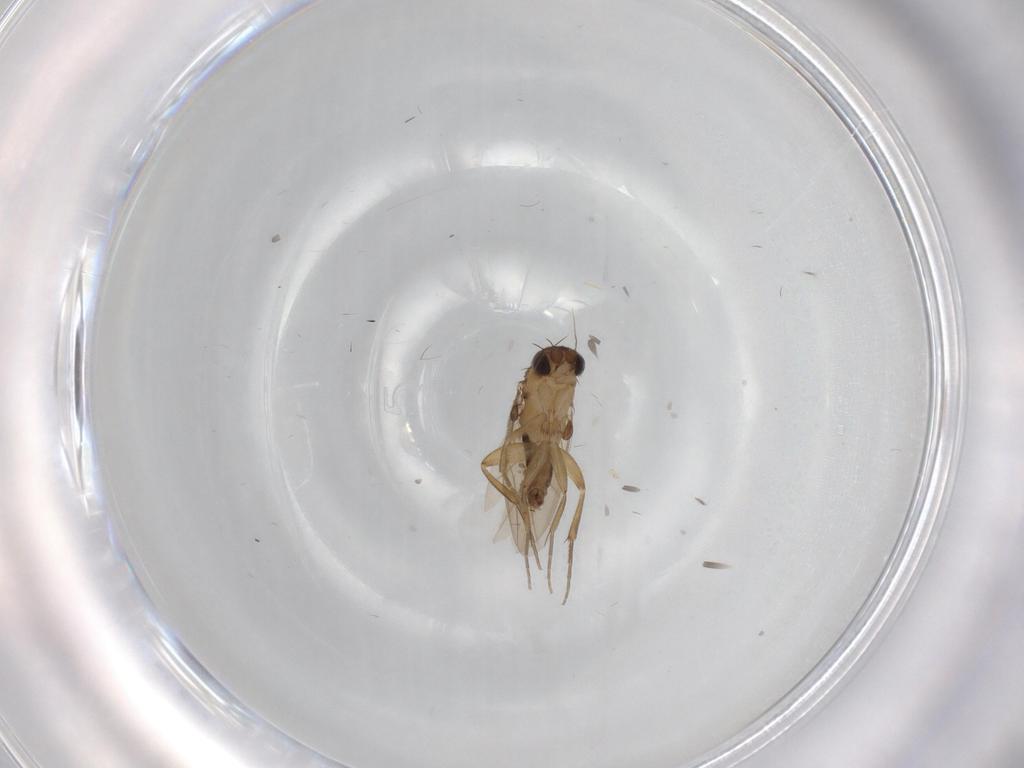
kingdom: Animalia
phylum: Arthropoda
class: Insecta
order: Diptera
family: Phoridae
